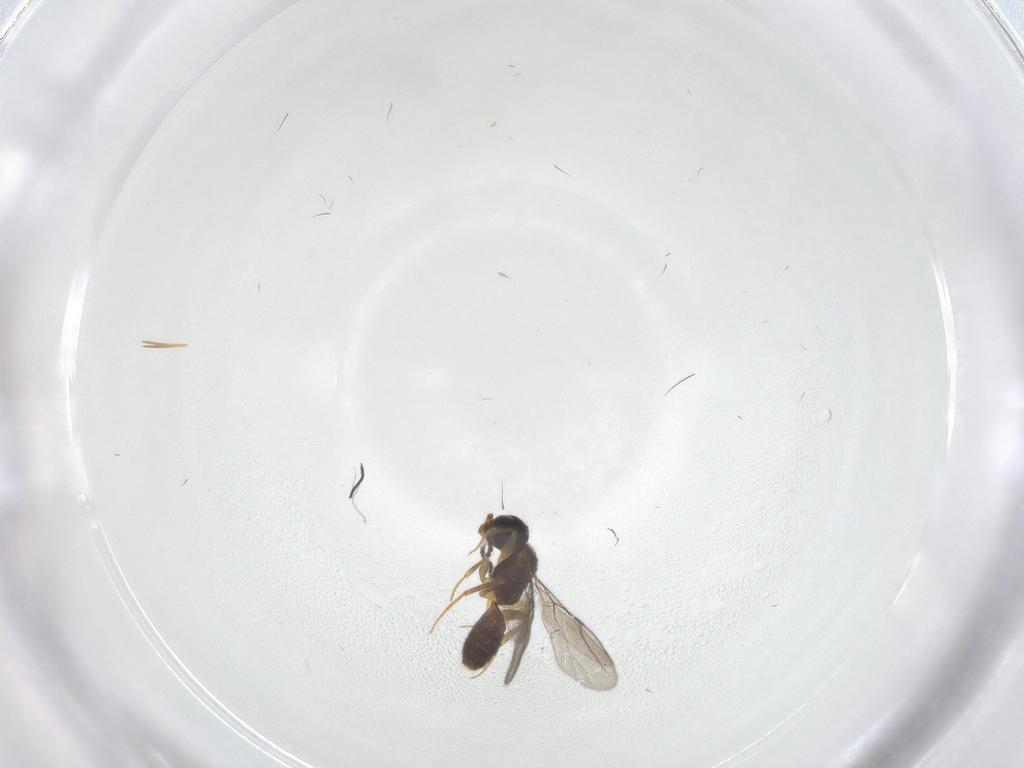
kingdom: Animalia
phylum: Arthropoda
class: Insecta
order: Hymenoptera
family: Bethylidae
